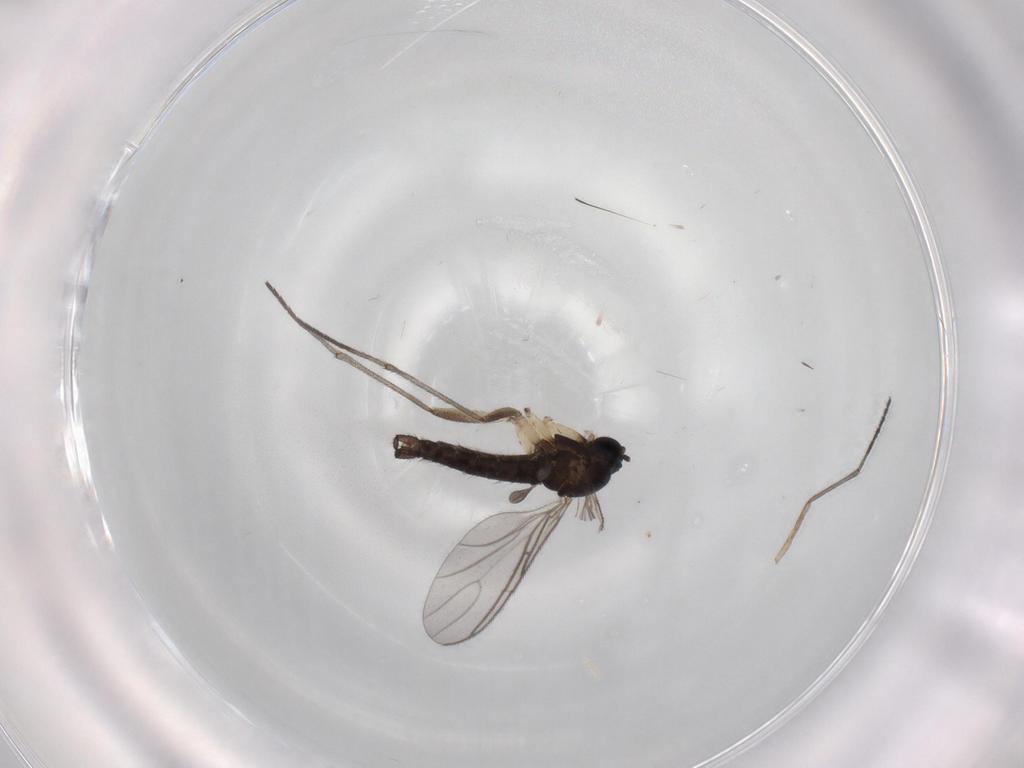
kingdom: Animalia
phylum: Arthropoda
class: Insecta
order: Diptera
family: Sciaridae
